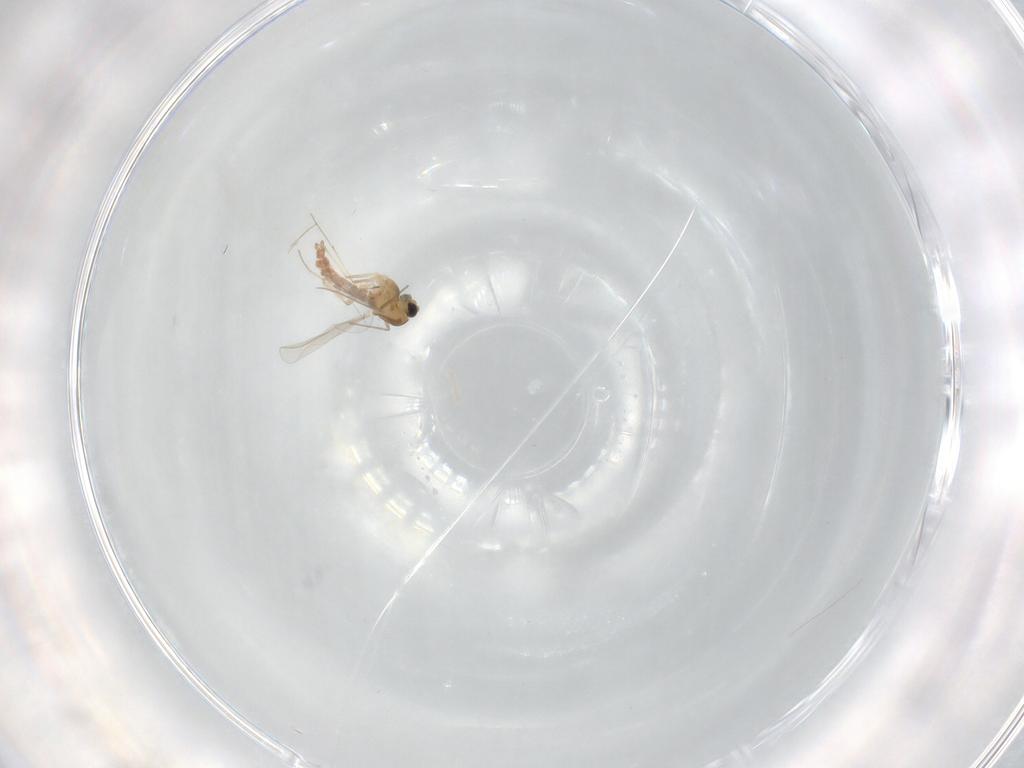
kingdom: Animalia
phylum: Arthropoda
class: Insecta
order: Diptera
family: Chironomidae
